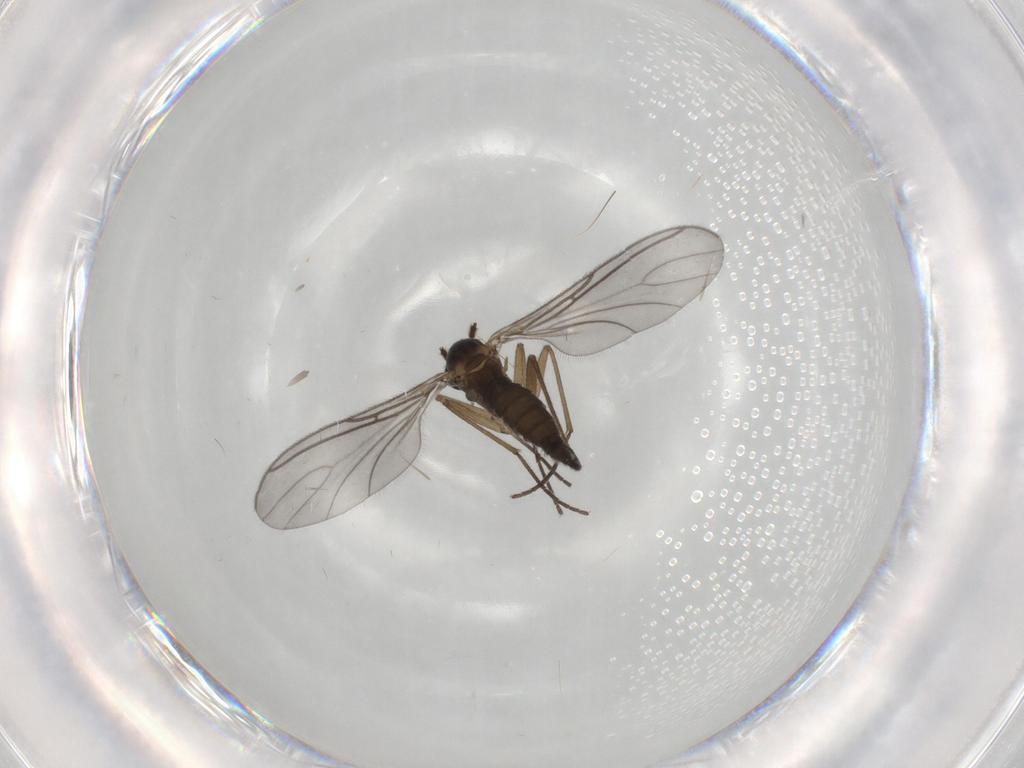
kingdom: Animalia
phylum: Arthropoda
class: Insecta
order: Diptera
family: Sciaridae
